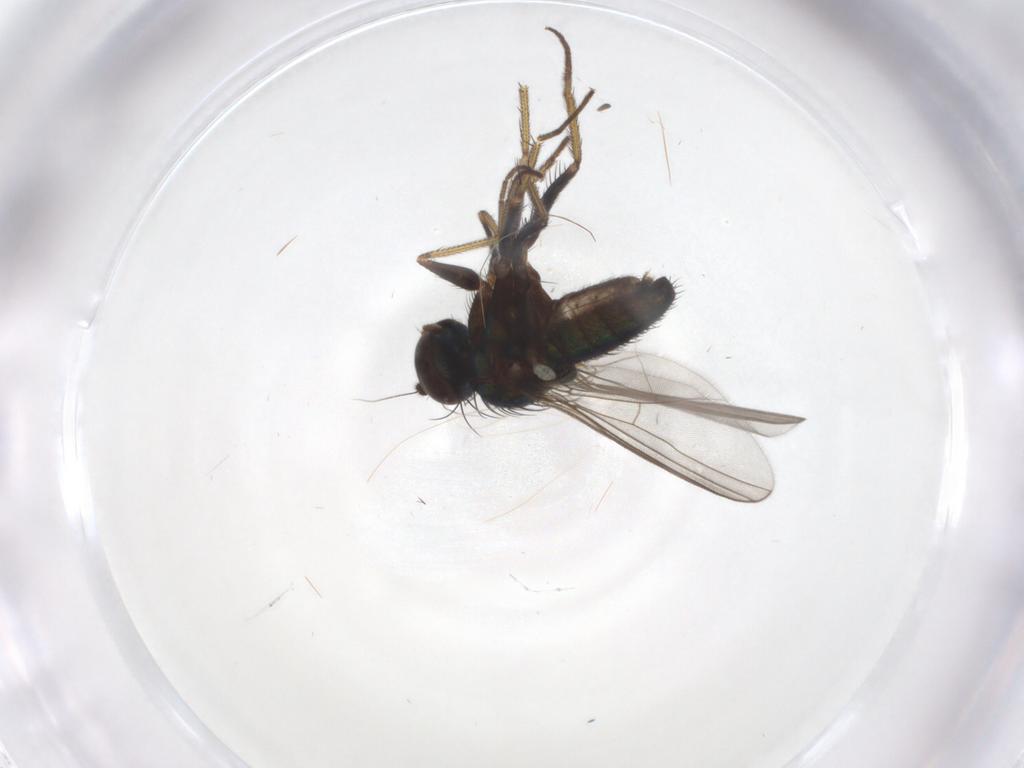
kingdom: Animalia
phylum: Arthropoda
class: Insecta
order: Diptera
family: Dolichopodidae
